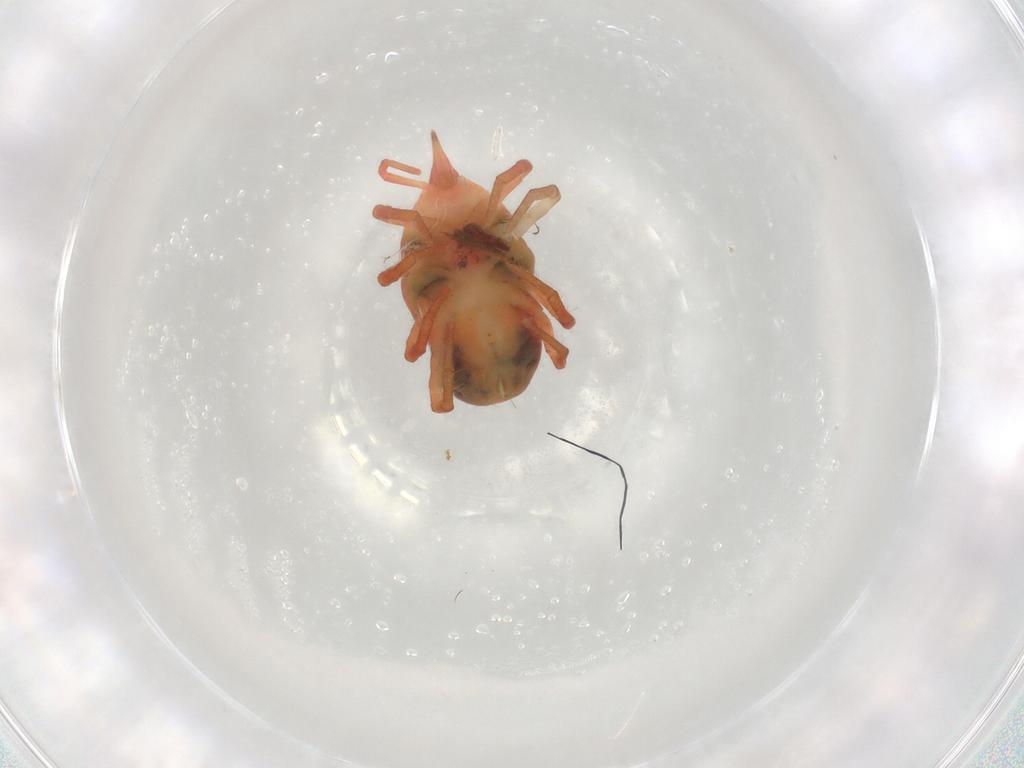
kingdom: Animalia
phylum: Arthropoda
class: Arachnida
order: Trombidiformes
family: Bdellidae
